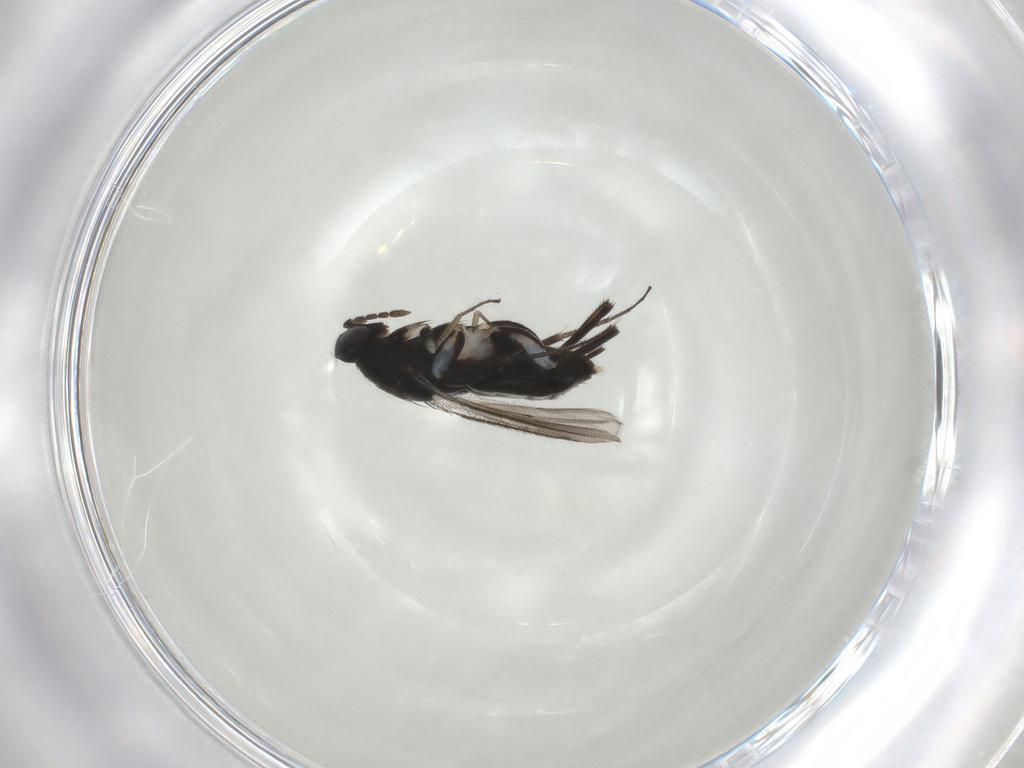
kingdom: Animalia
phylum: Arthropoda
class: Insecta
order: Hymenoptera
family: Eulophidae
